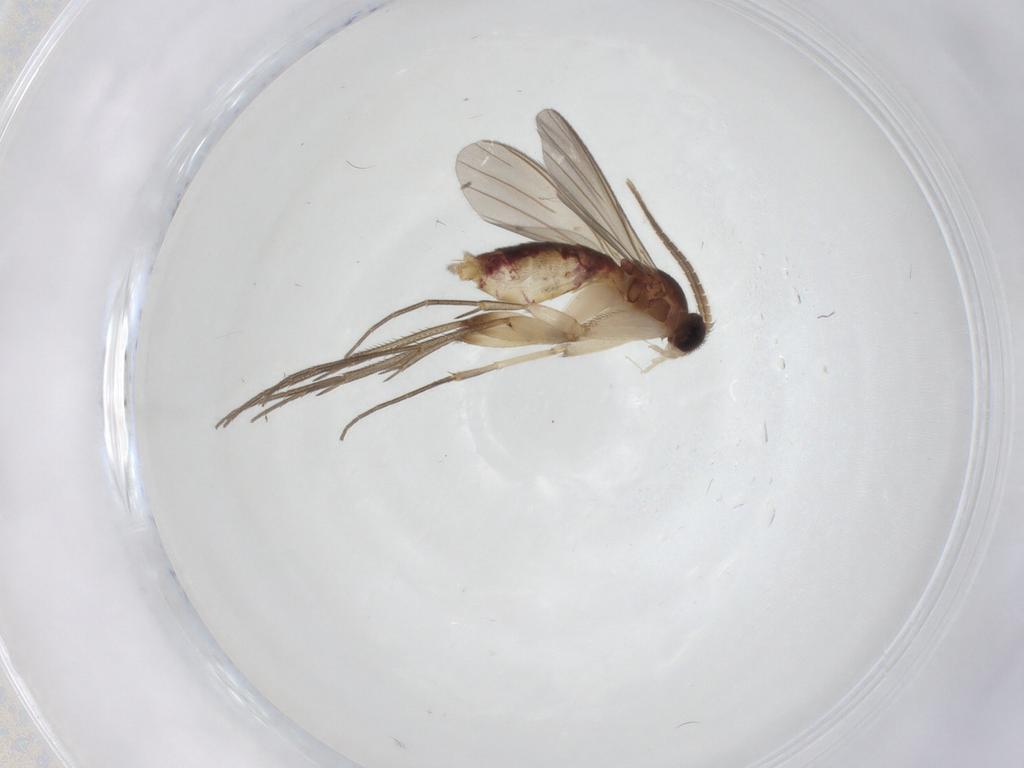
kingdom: Animalia
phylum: Arthropoda
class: Insecta
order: Diptera
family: Mycetophilidae
